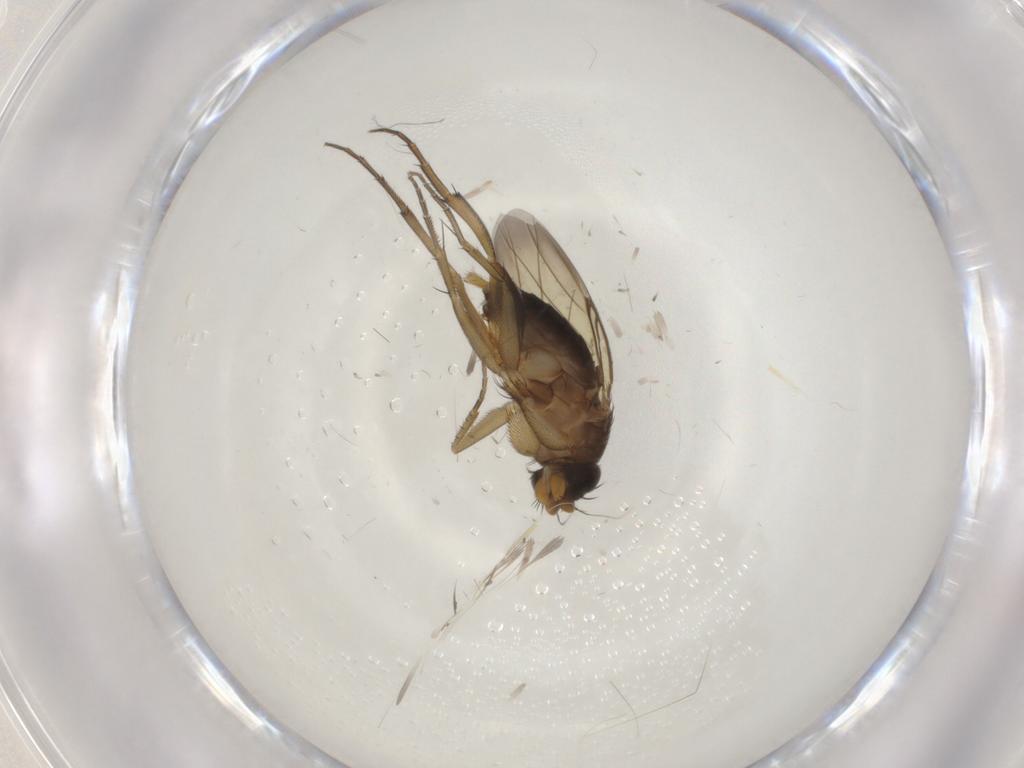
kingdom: Animalia
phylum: Arthropoda
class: Insecta
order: Diptera
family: Phoridae
